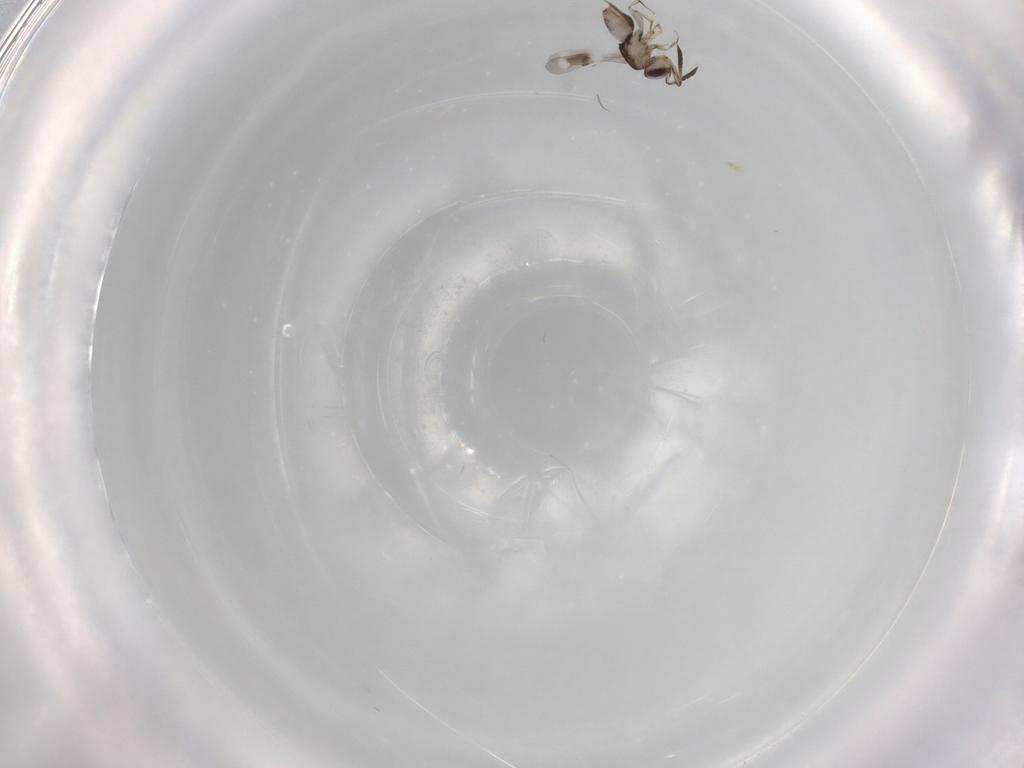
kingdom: Animalia
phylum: Arthropoda
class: Insecta
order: Hymenoptera
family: Ceraphronidae
